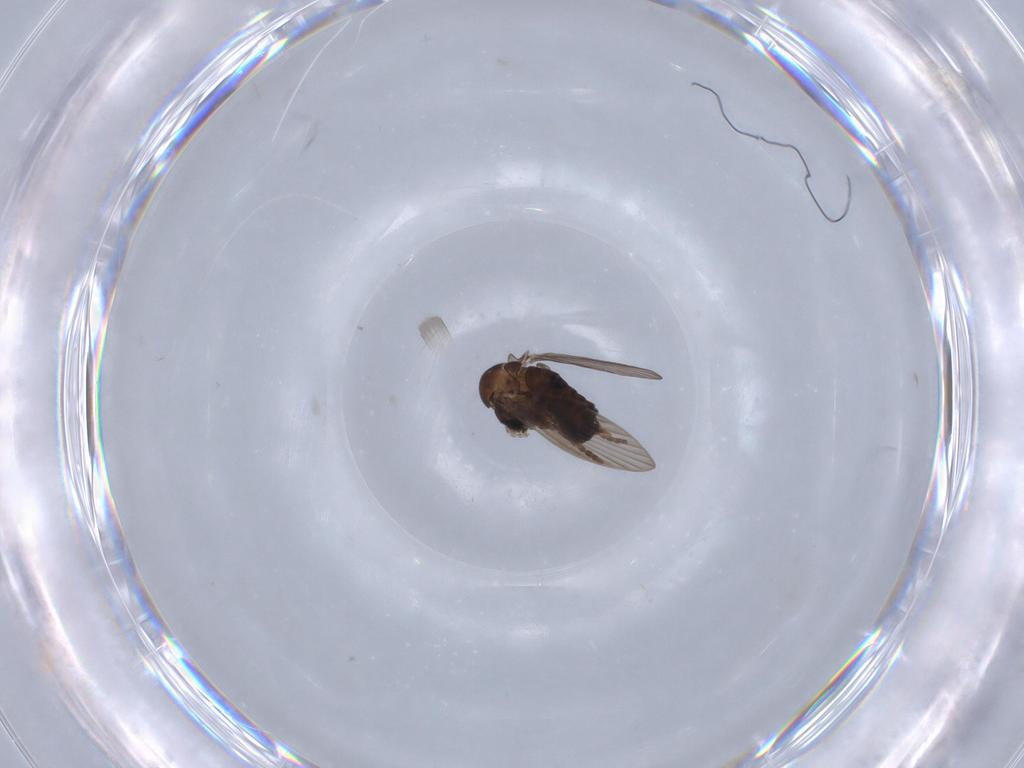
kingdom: Animalia
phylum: Arthropoda
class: Insecta
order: Diptera
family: Psychodidae
